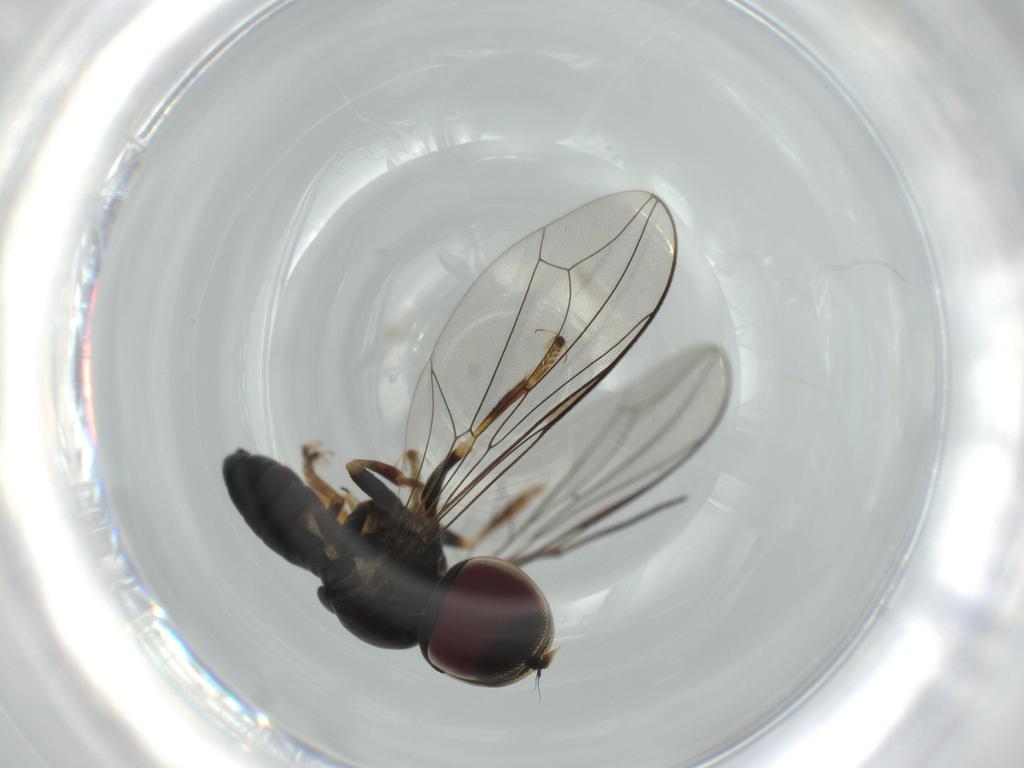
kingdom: Animalia
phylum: Arthropoda
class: Insecta
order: Diptera
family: Pipunculidae
